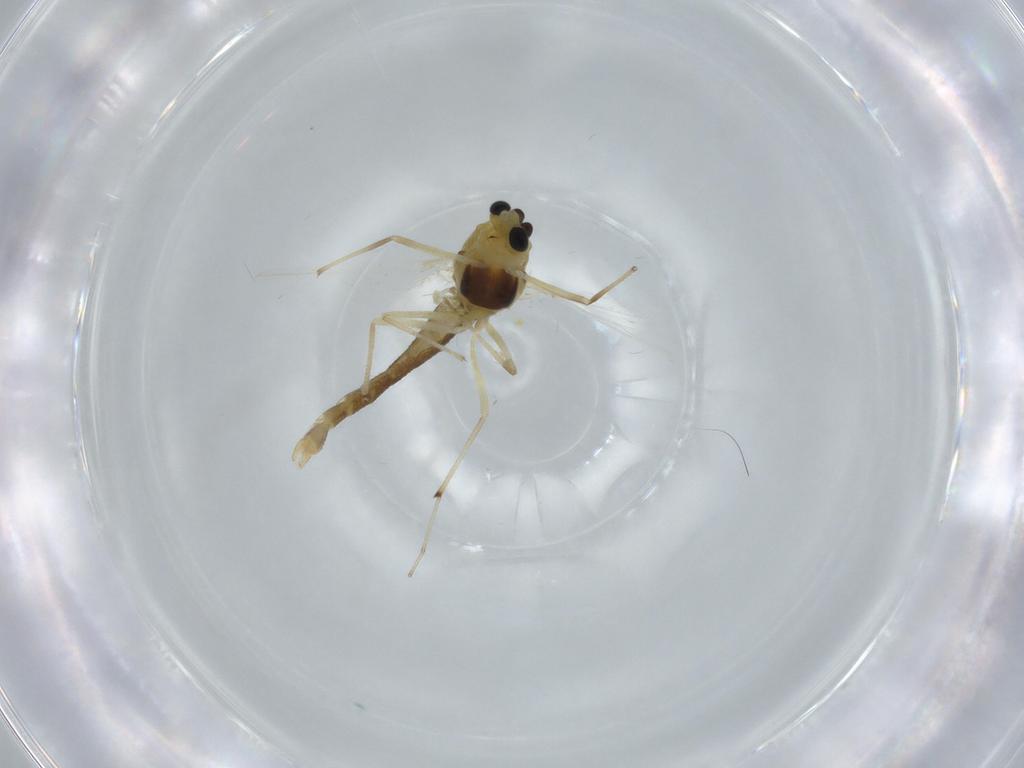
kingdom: Animalia
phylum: Arthropoda
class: Insecta
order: Diptera
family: Chironomidae
